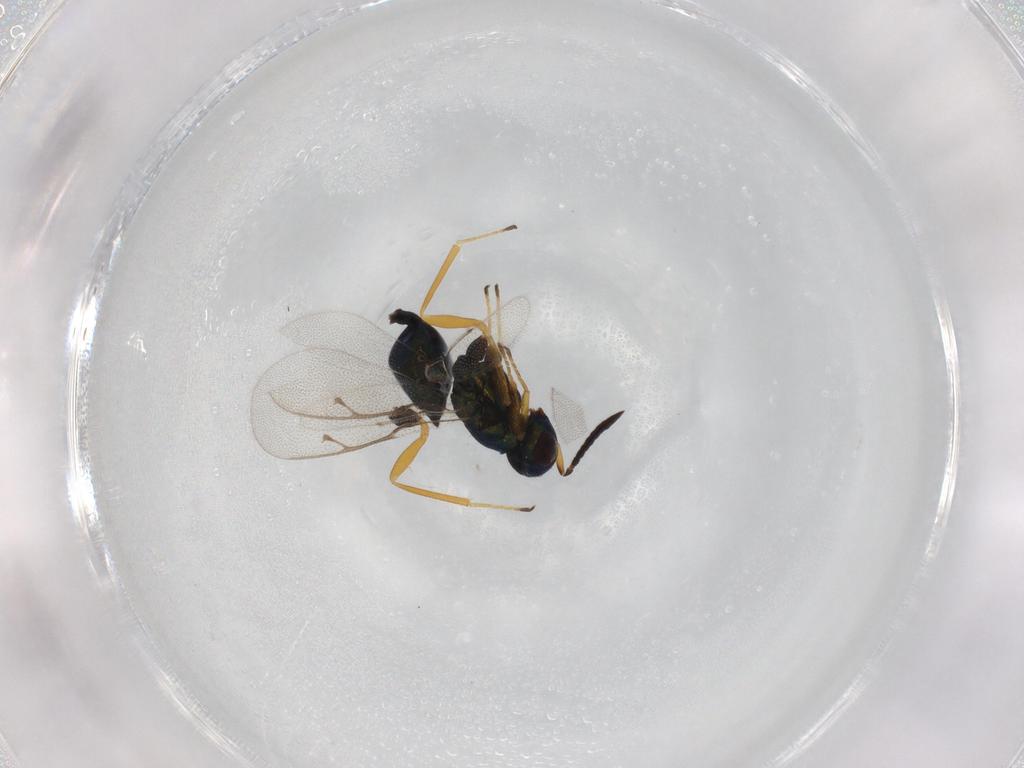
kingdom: Animalia
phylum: Arthropoda
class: Insecta
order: Hymenoptera
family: Pteromalidae
